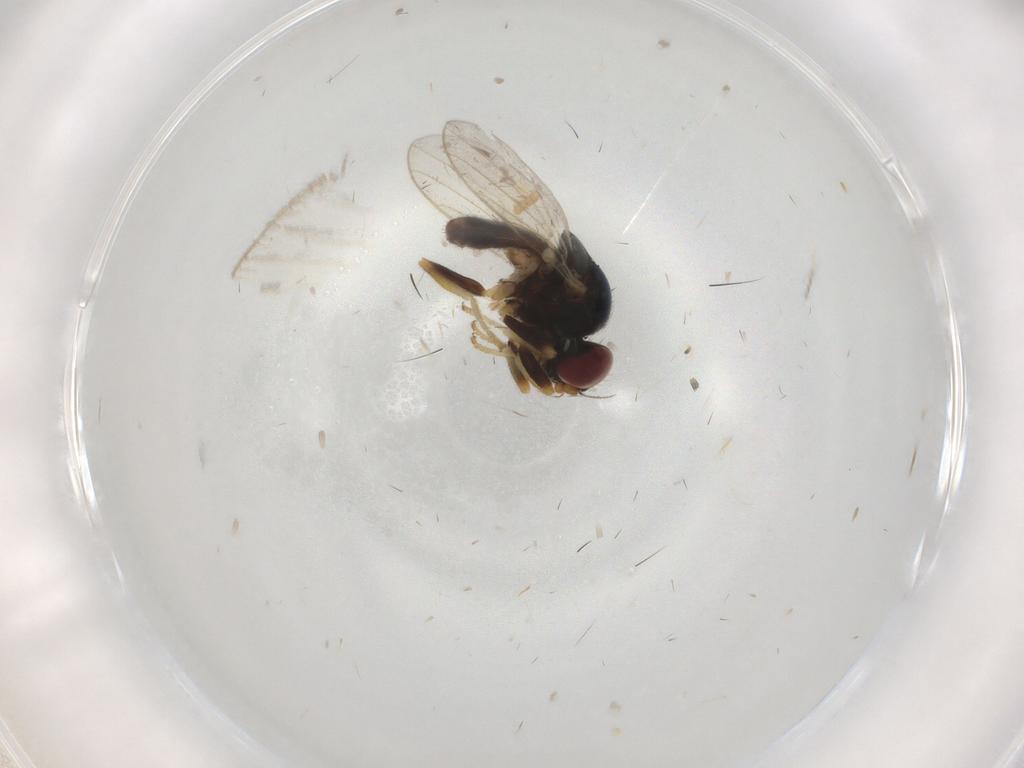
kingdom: Animalia
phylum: Arthropoda
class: Insecta
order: Diptera
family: Chloropidae
